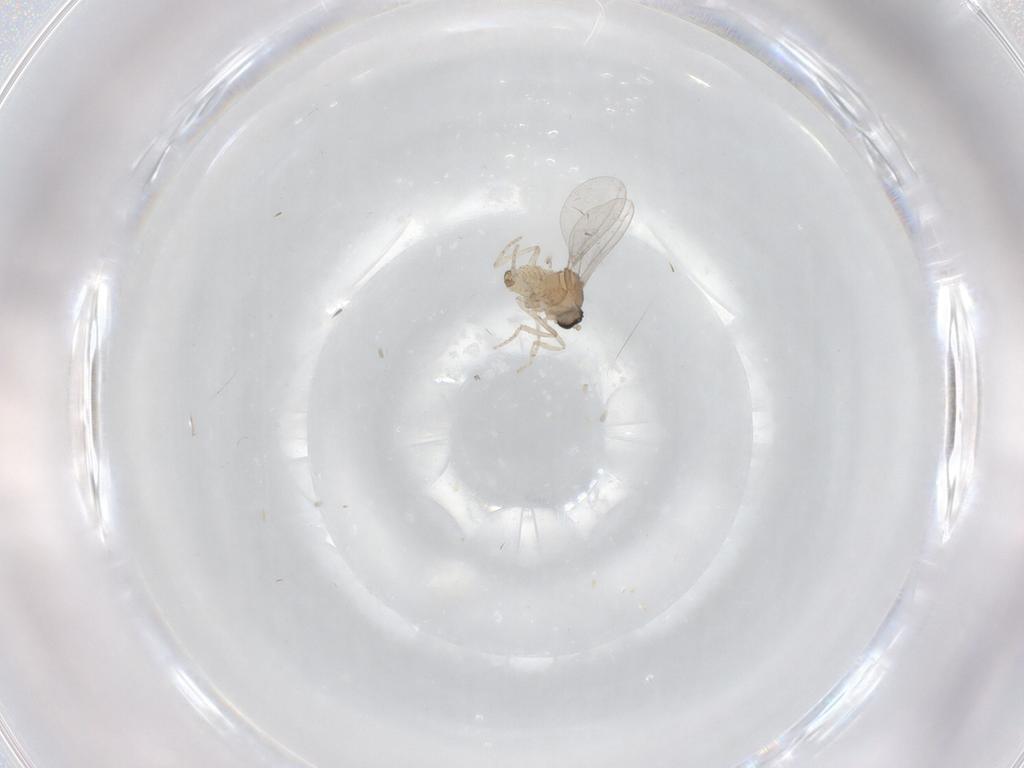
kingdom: Animalia
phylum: Arthropoda
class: Insecta
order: Diptera
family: Cecidomyiidae
